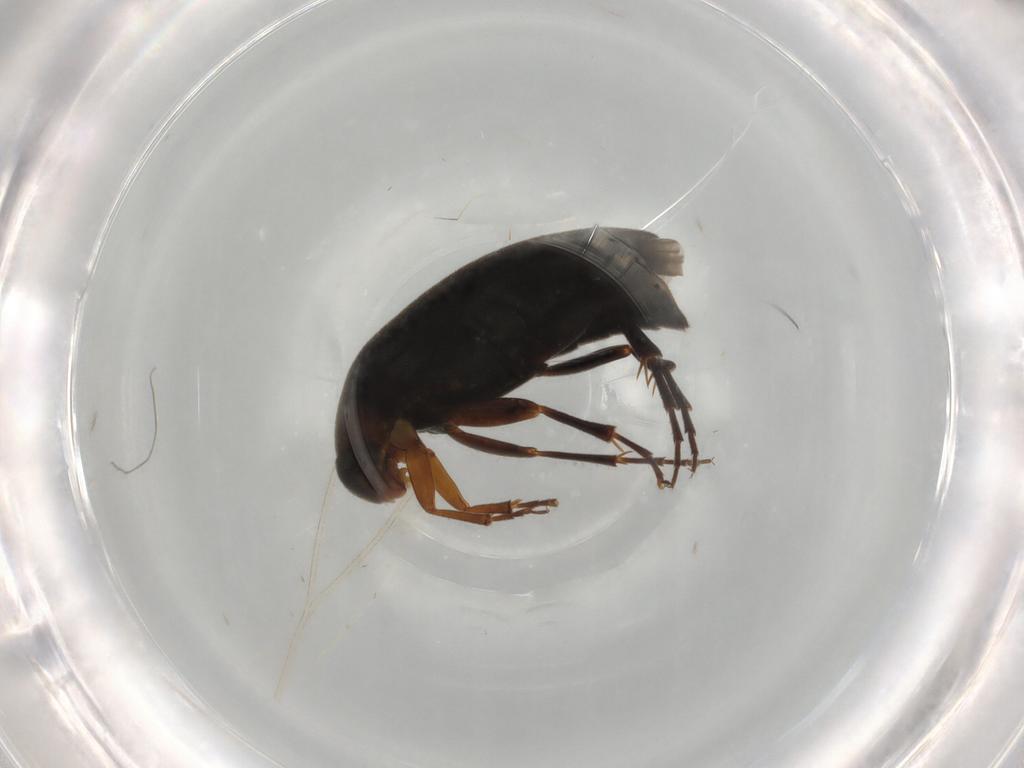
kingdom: Animalia
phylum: Arthropoda
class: Insecta
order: Coleoptera
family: Scraptiidae
